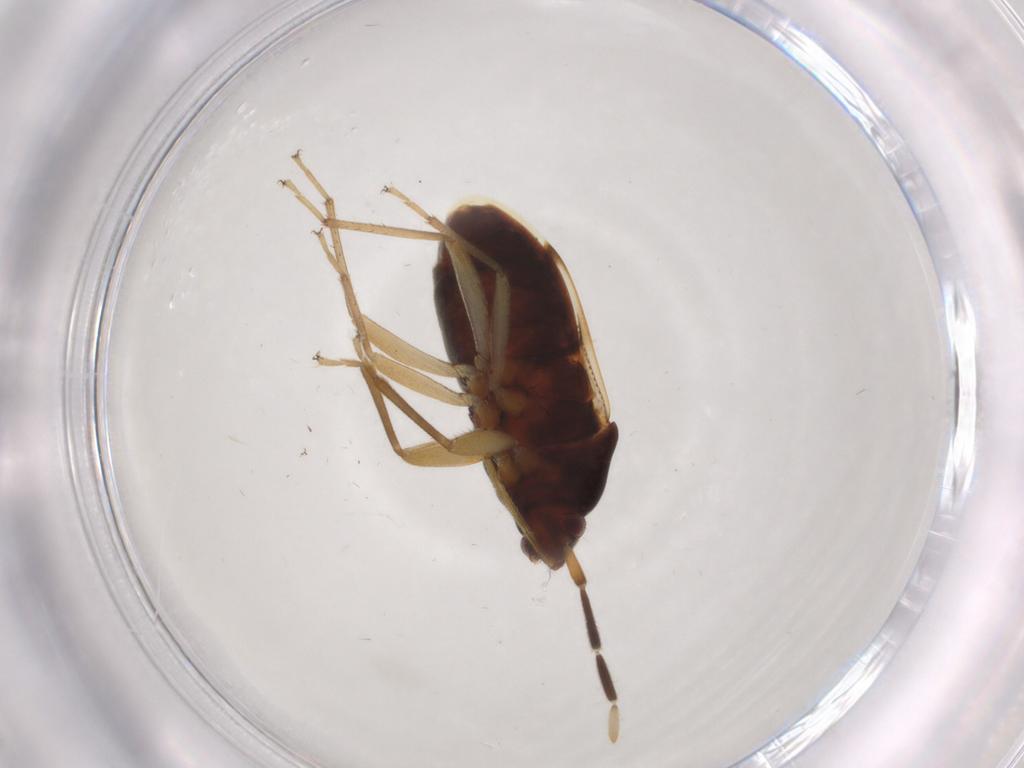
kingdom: Animalia
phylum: Arthropoda
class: Insecta
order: Hemiptera
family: Rhyparochromidae
